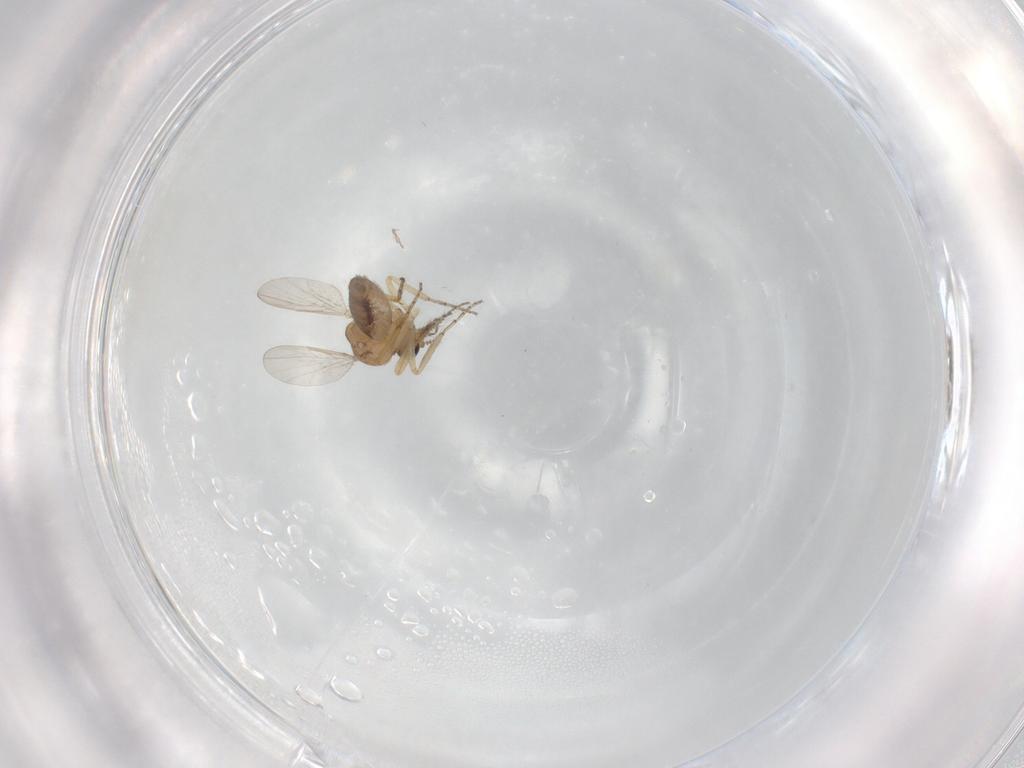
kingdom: Animalia
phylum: Arthropoda
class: Insecta
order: Diptera
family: Ceratopogonidae
